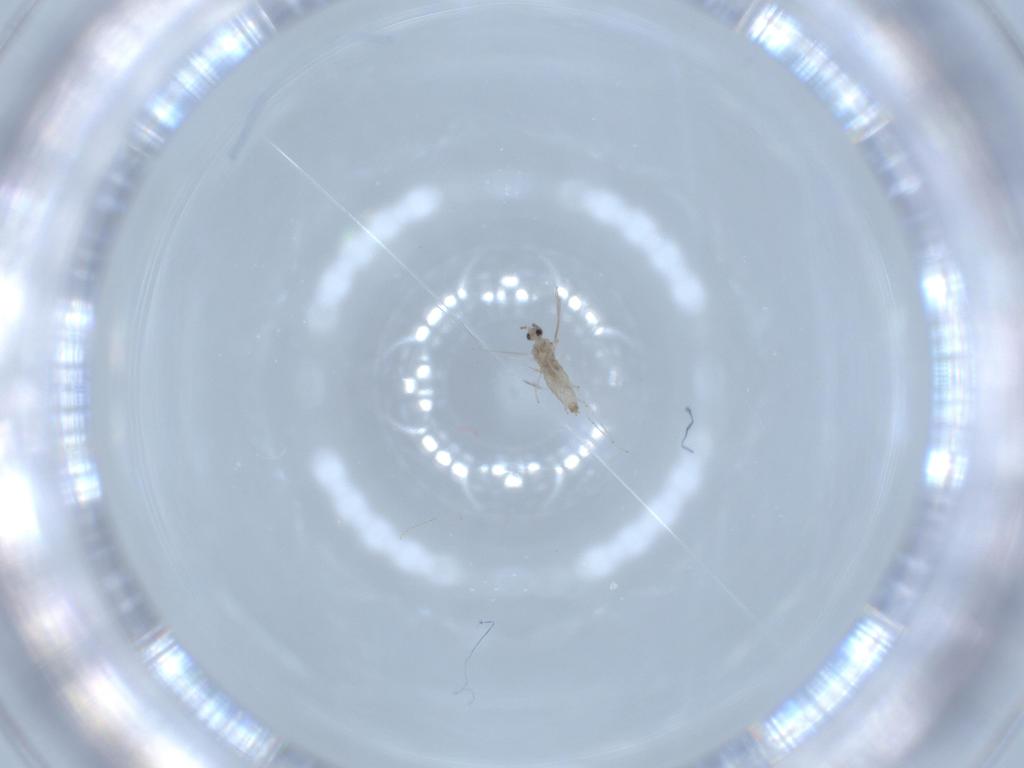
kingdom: Animalia
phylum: Arthropoda
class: Insecta
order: Diptera
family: Cecidomyiidae
